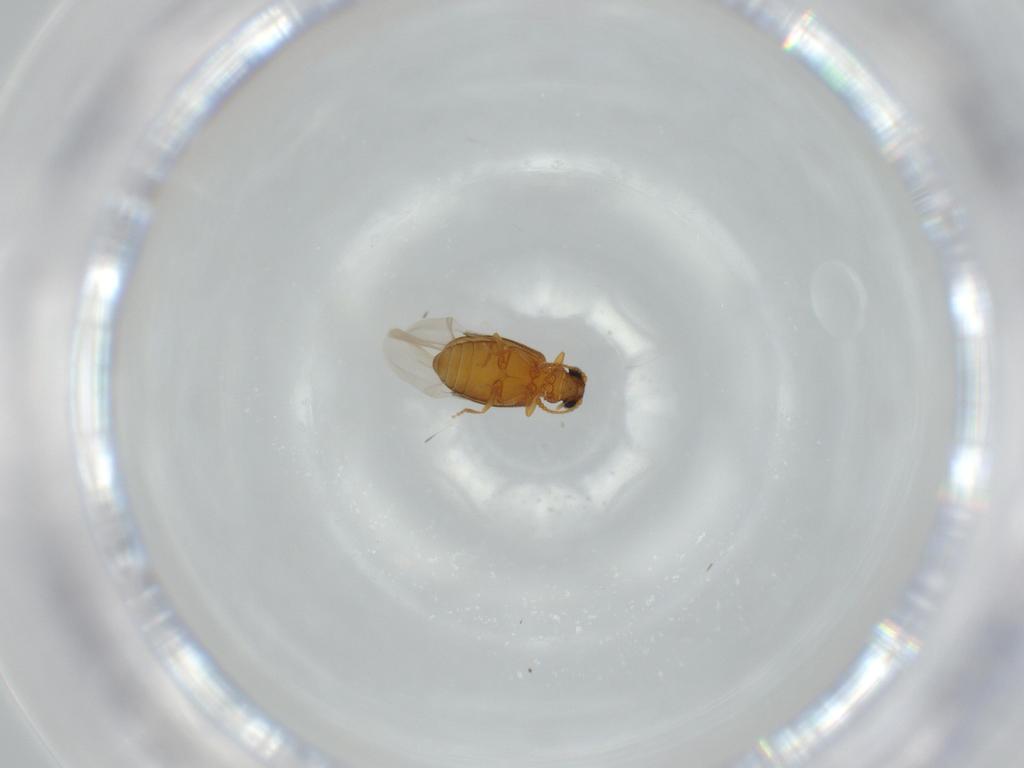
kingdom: Animalia
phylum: Arthropoda
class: Insecta
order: Coleoptera
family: Aderidae
